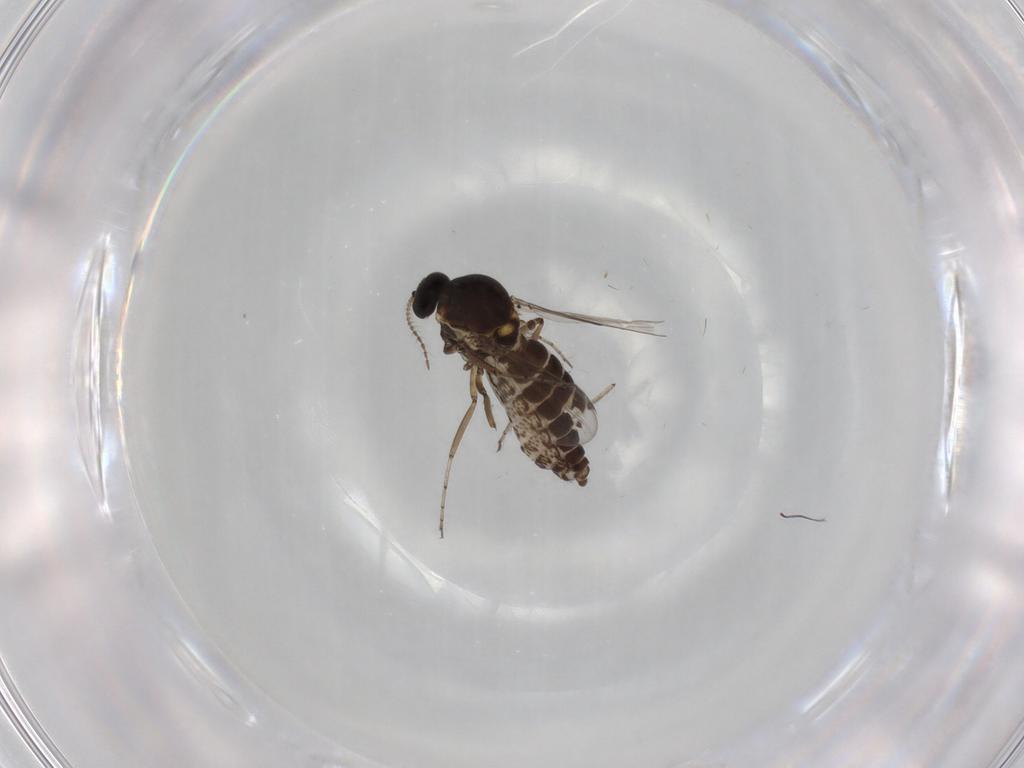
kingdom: Animalia
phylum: Arthropoda
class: Insecta
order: Diptera
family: Ceratopogonidae
